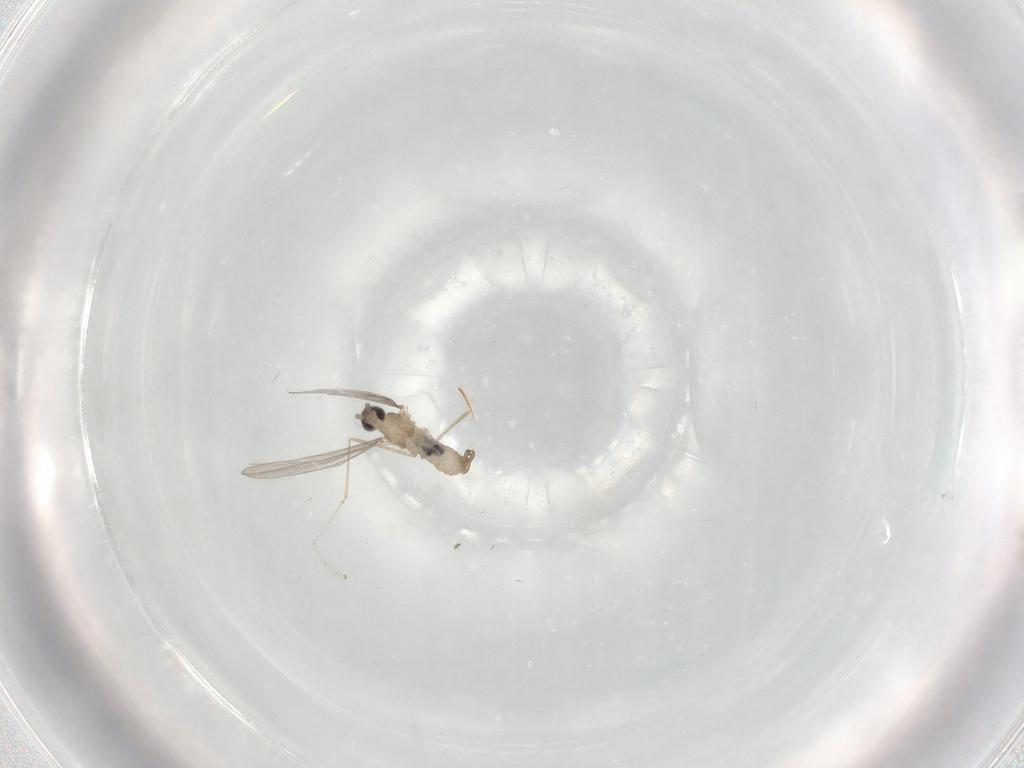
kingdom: Animalia
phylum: Arthropoda
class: Insecta
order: Diptera
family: Cecidomyiidae
